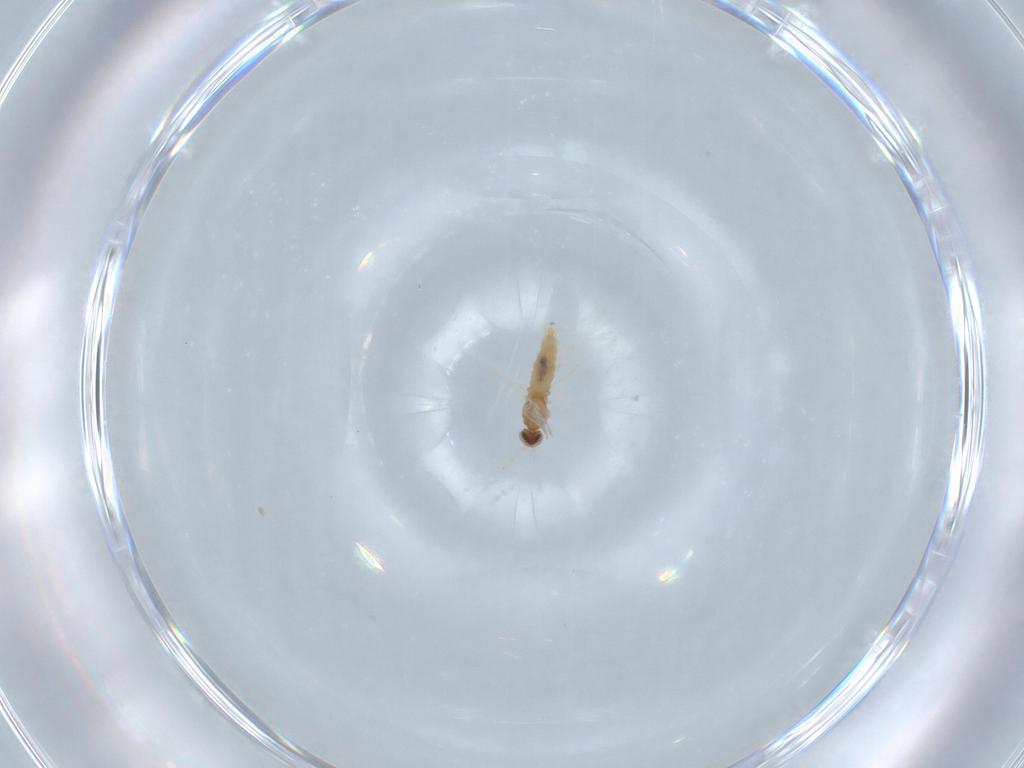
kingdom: Animalia
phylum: Arthropoda
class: Insecta
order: Diptera
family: Cecidomyiidae
